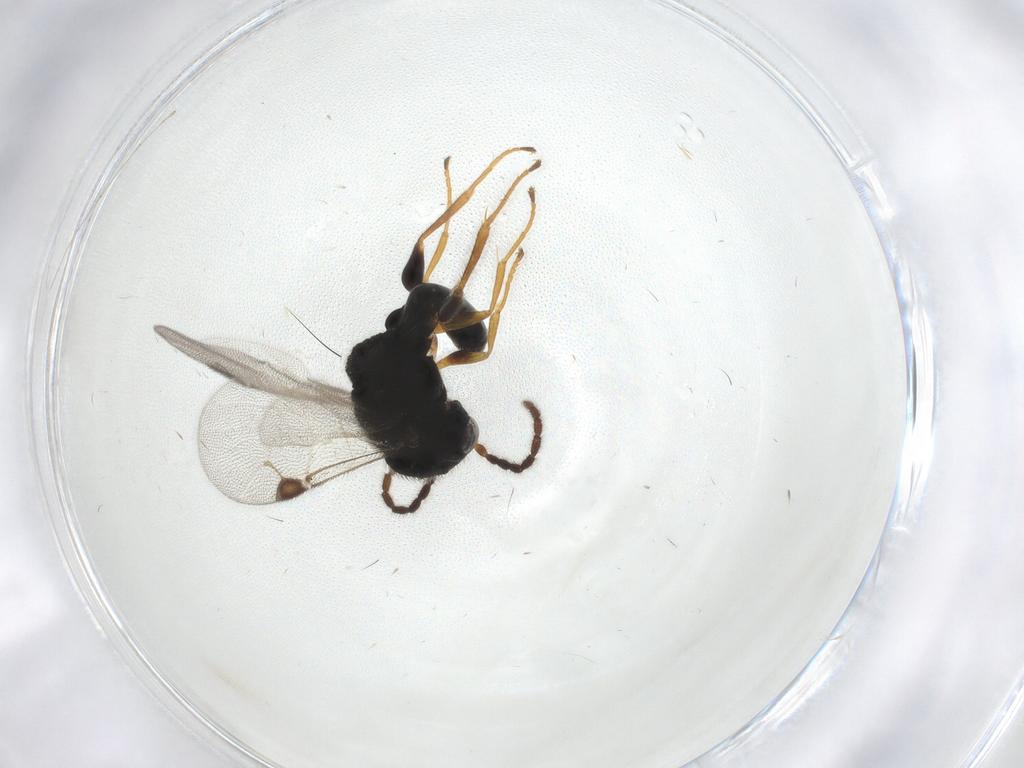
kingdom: Animalia
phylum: Arthropoda
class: Insecta
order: Hymenoptera
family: Dryinidae
